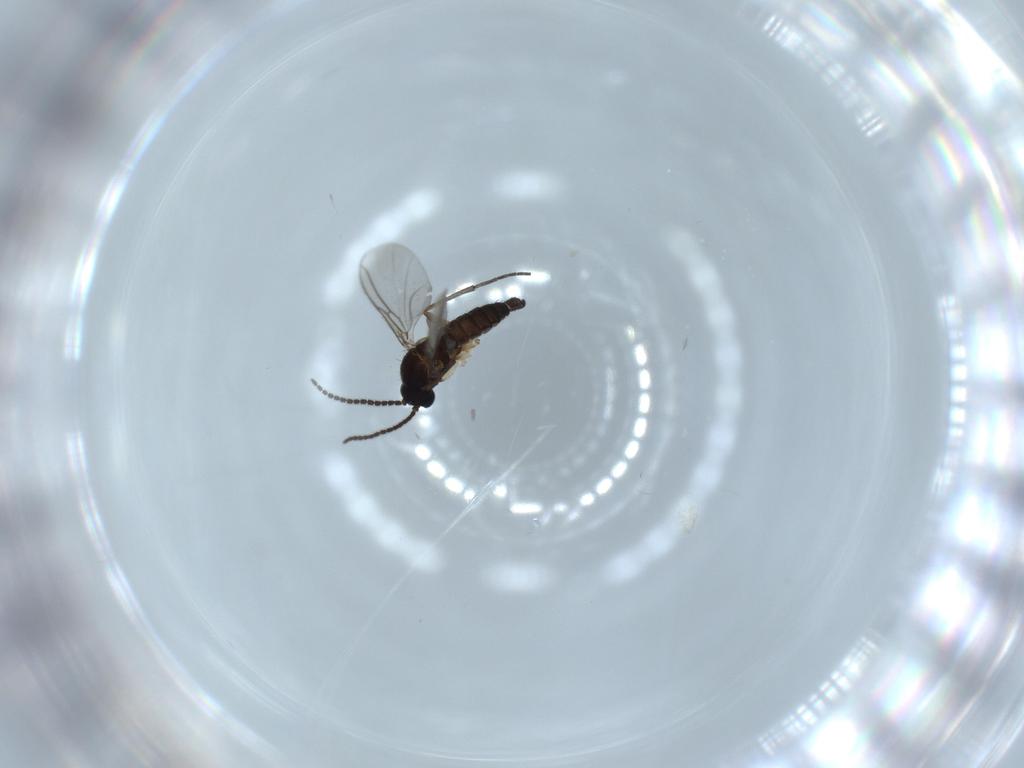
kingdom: Animalia
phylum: Arthropoda
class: Insecta
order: Diptera
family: Sciaridae
